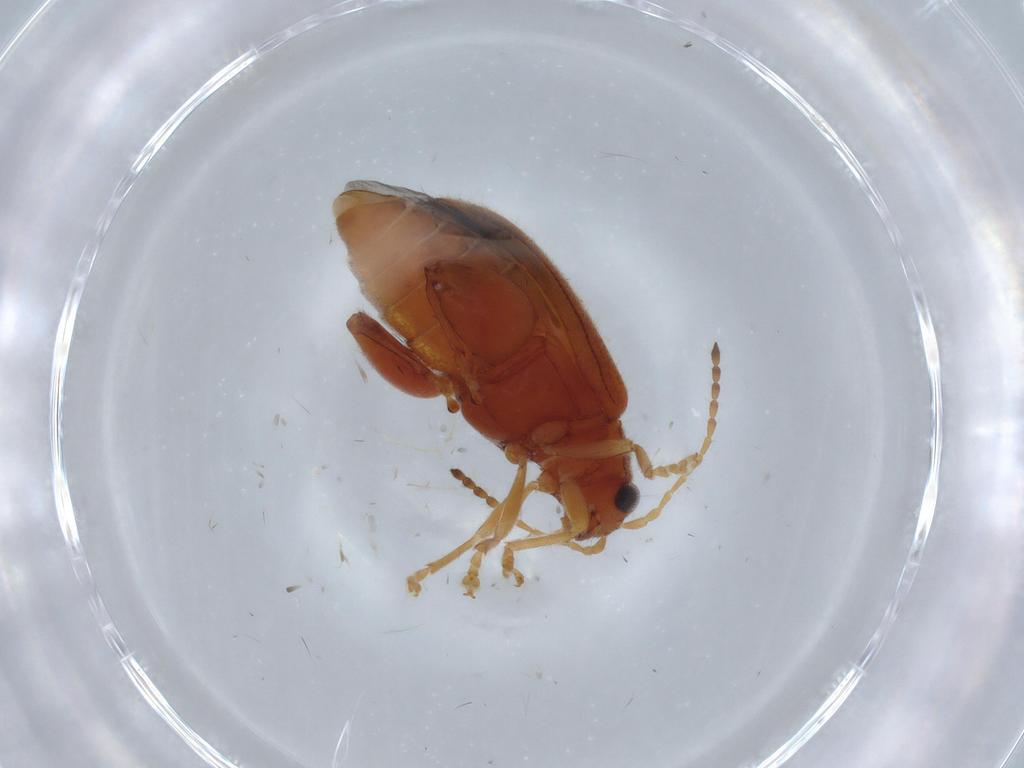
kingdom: Animalia
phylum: Arthropoda
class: Insecta
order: Coleoptera
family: Chrysomelidae
